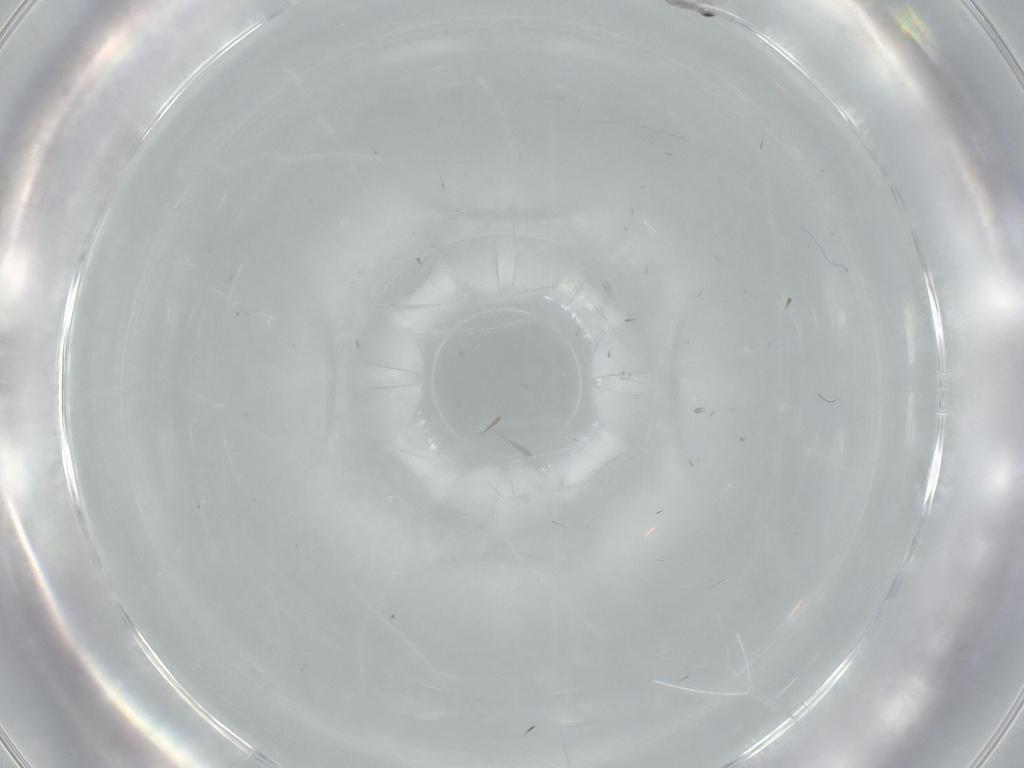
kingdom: Animalia
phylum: Arthropoda
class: Insecta
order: Diptera
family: Cecidomyiidae
